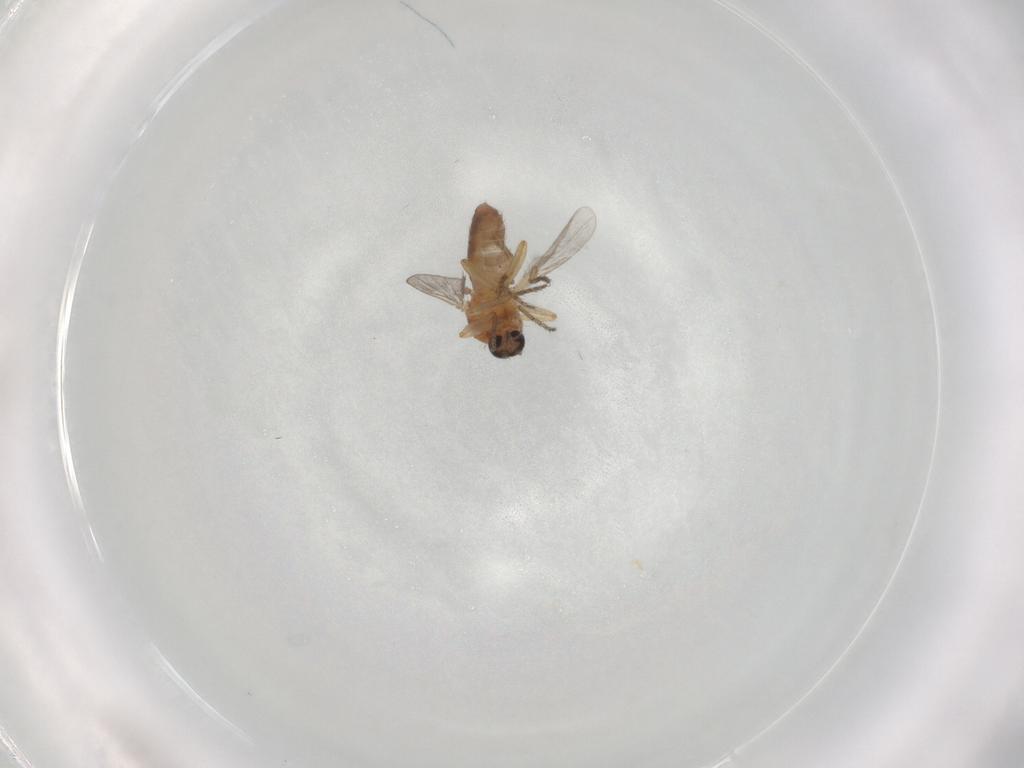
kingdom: Animalia
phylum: Arthropoda
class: Insecta
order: Diptera
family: Ceratopogonidae
